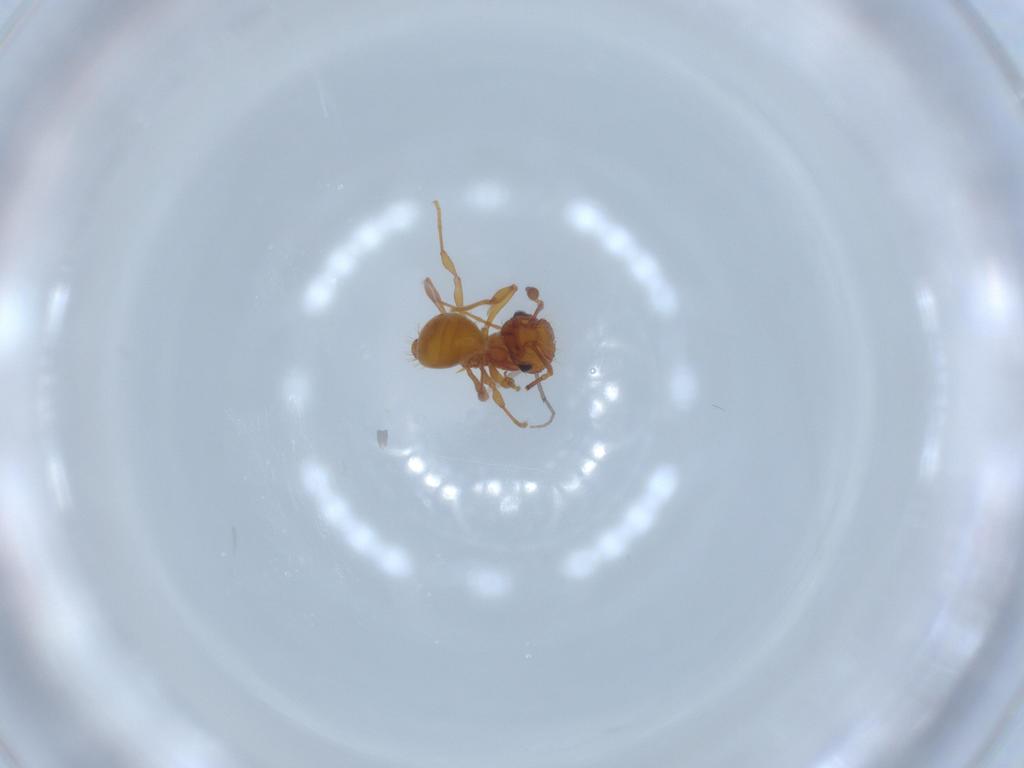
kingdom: Animalia
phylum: Arthropoda
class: Insecta
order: Hymenoptera
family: Formicidae
